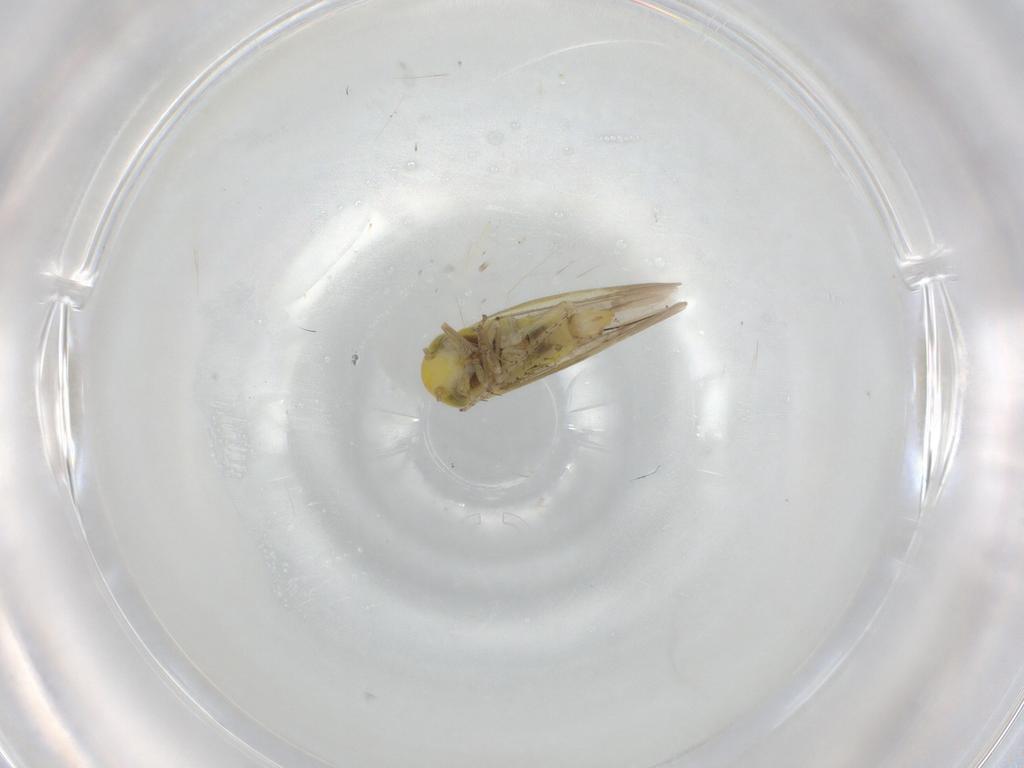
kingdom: Animalia
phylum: Arthropoda
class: Insecta
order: Hemiptera
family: Cicadellidae
